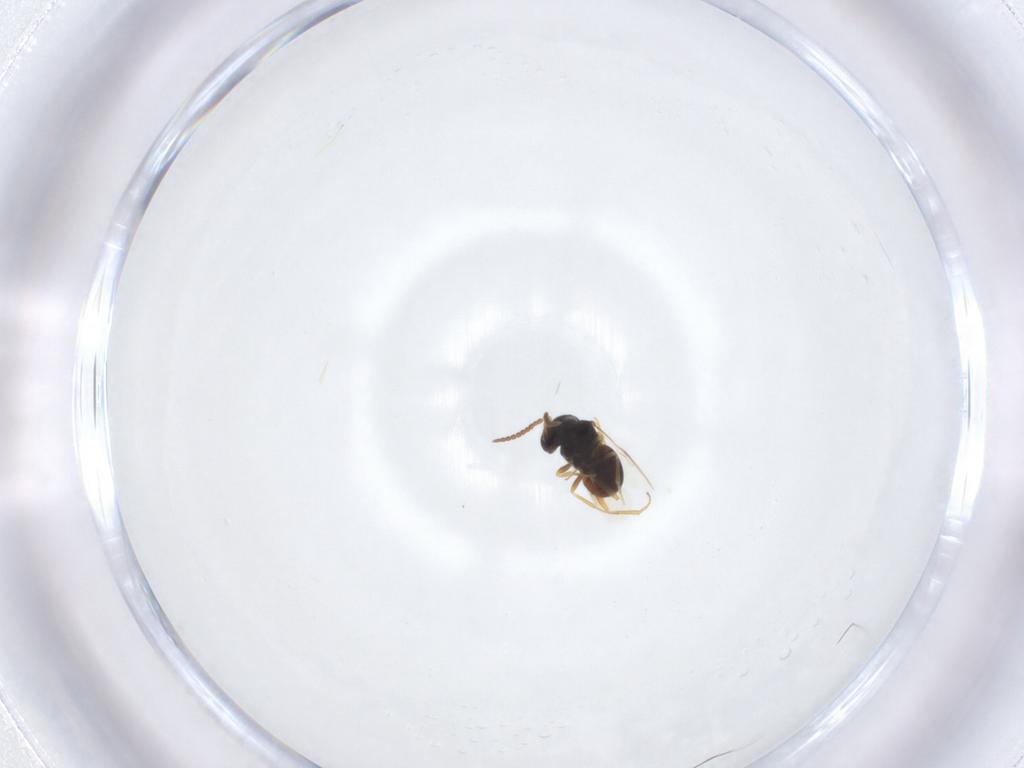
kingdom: Animalia
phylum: Arthropoda
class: Insecta
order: Hymenoptera
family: Scelionidae
